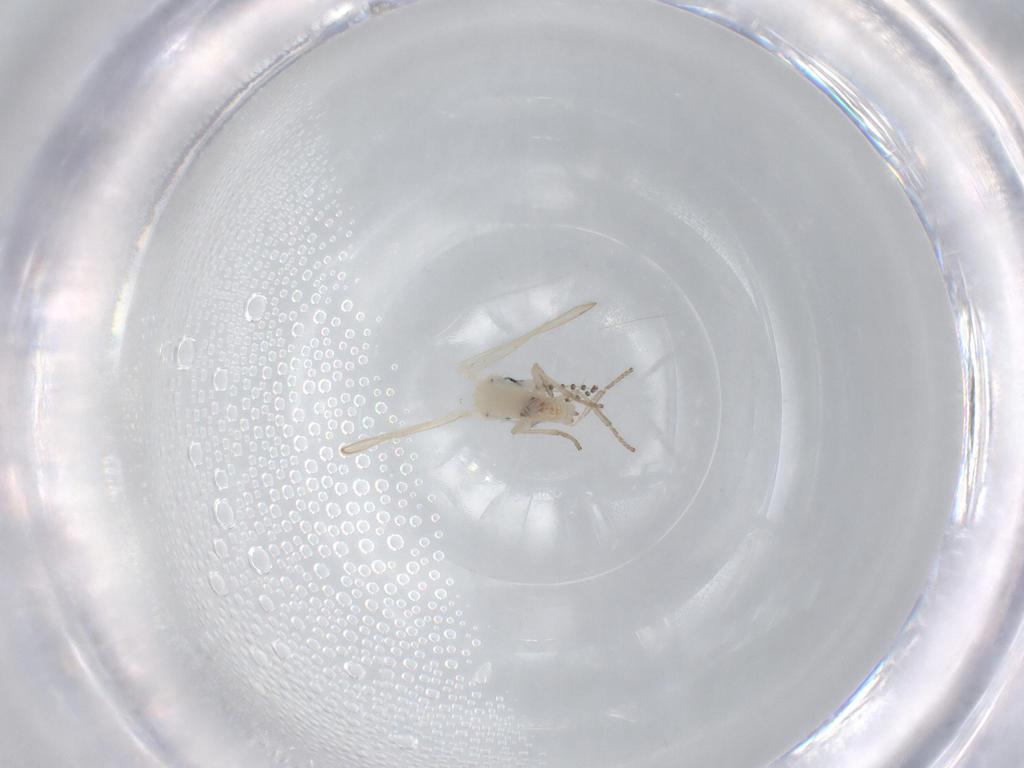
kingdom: Animalia
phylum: Arthropoda
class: Insecta
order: Diptera
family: Psychodidae
